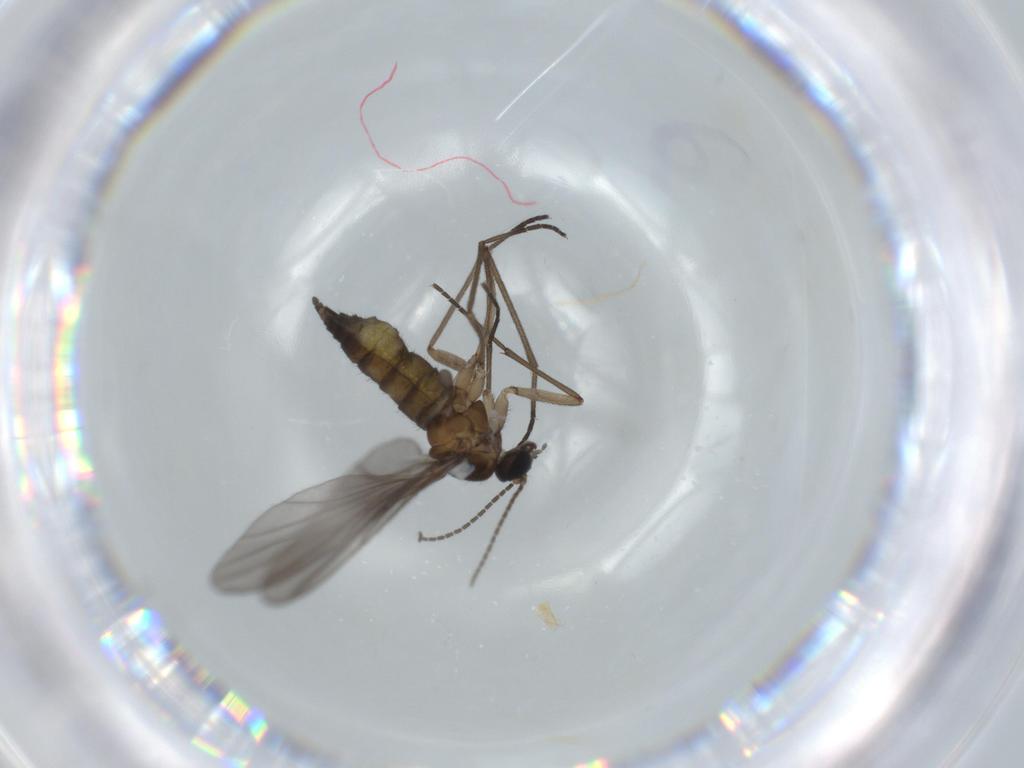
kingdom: Animalia
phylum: Arthropoda
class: Insecta
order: Diptera
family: Sciaridae
